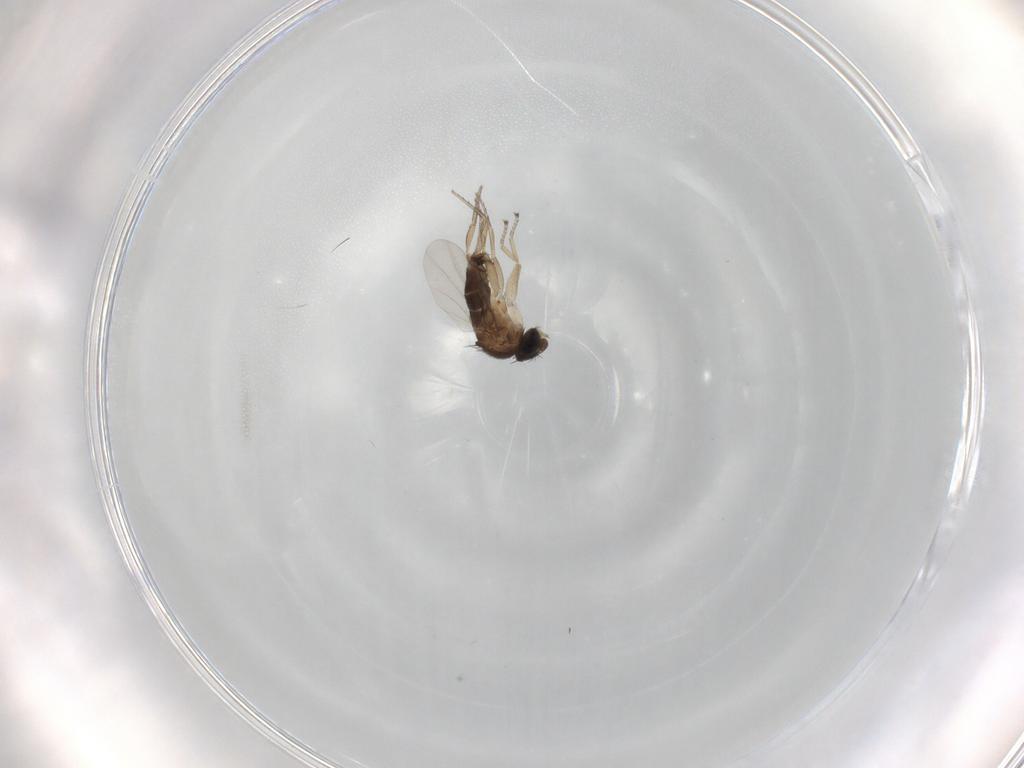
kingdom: Animalia
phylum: Arthropoda
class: Insecta
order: Diptera
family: Phoridae
